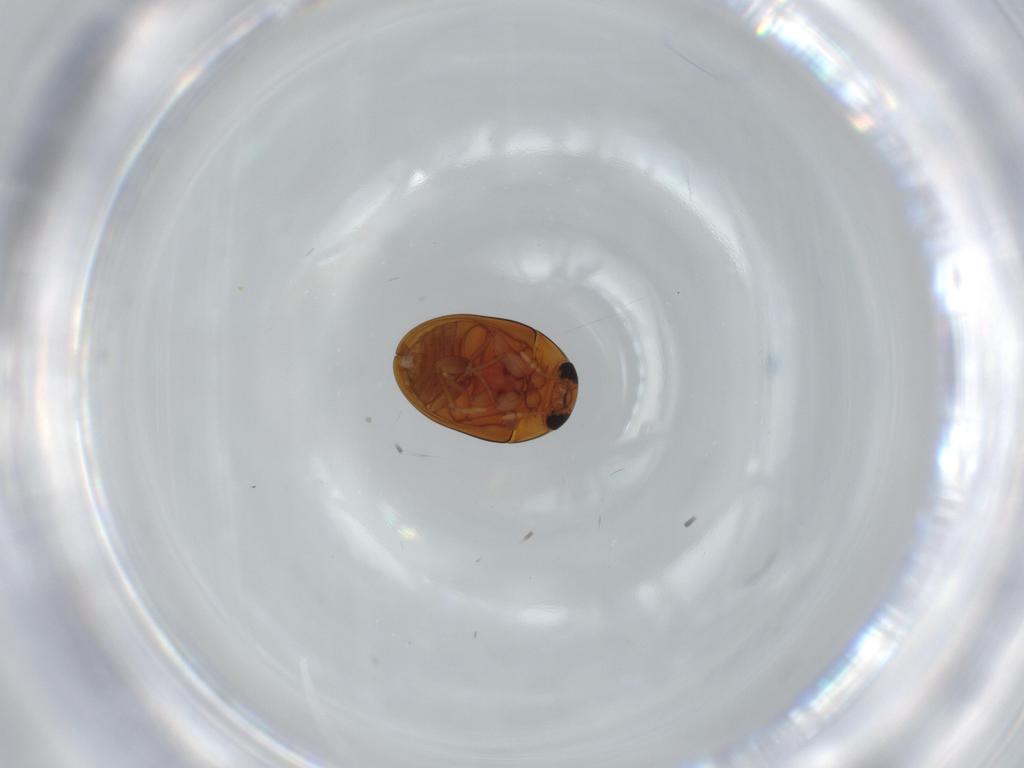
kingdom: Animalia
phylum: Arthropoda
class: Insecta
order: Coleoptera
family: Phalacridae
